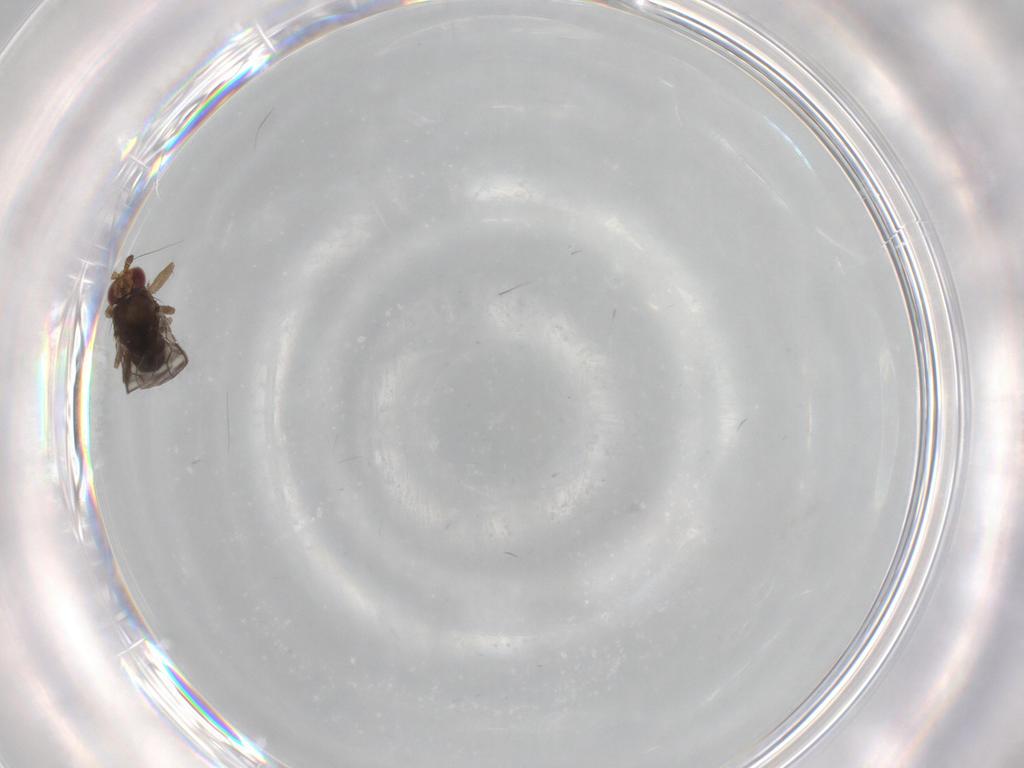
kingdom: Animalia
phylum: Arthropoda
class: Insecta
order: Diptera
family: Sphaeroceridae
